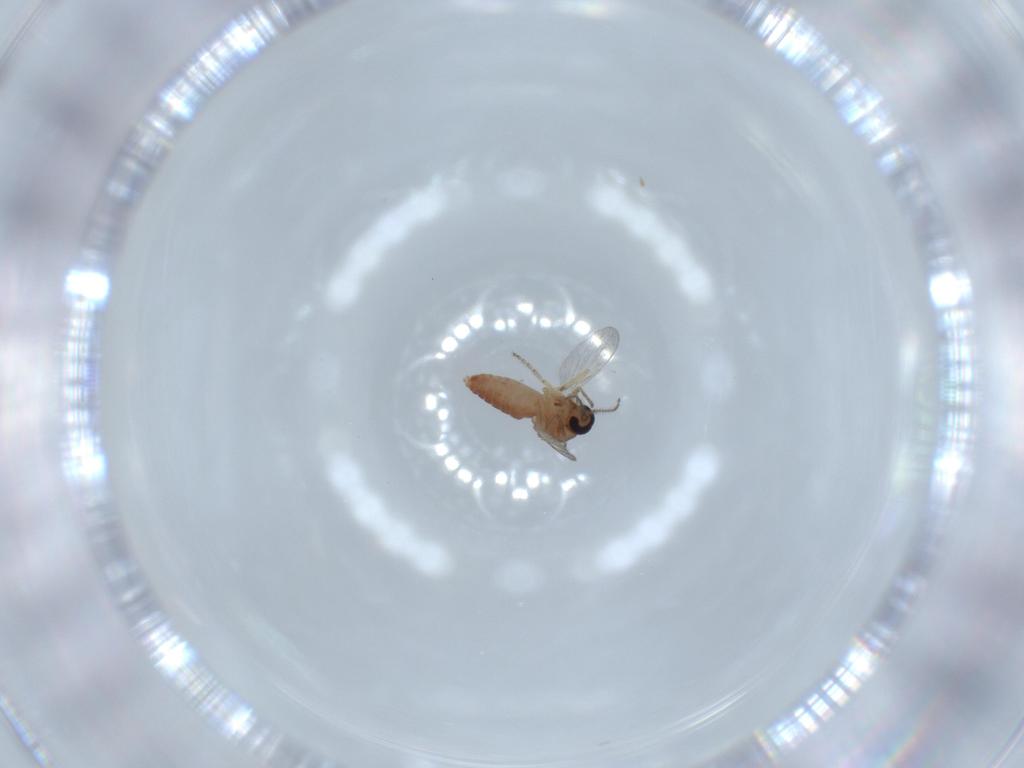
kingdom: Animalia
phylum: Arthropoda
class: Insecta
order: Diptera
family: Ceratopogonidae
